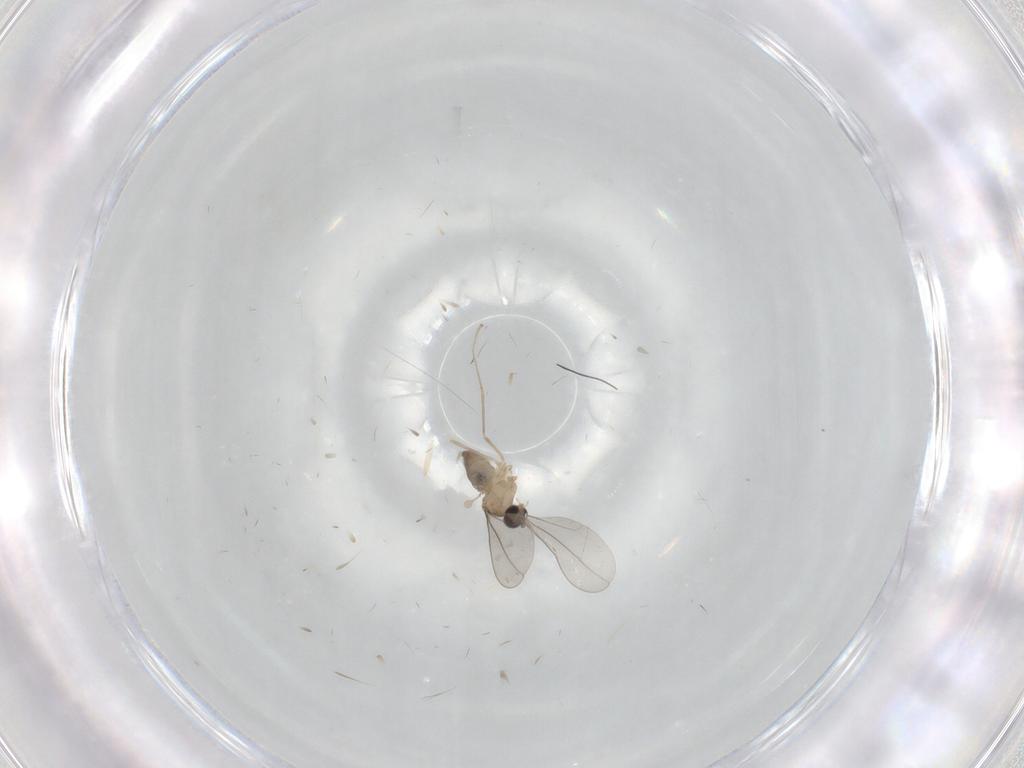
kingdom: Animalia
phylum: Arthropoda
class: Insecta
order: Diptera
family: Cecidomyiidae
